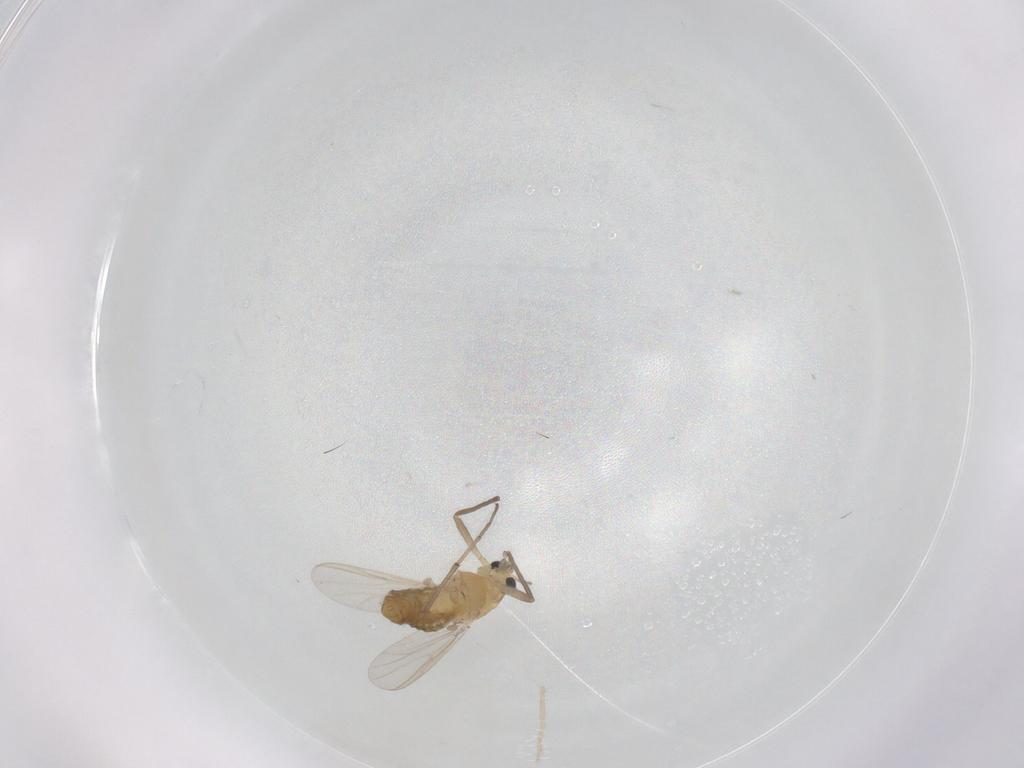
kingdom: Animalia
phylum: Arthropoda
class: Insecta
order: Diptera
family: Chironomidae
